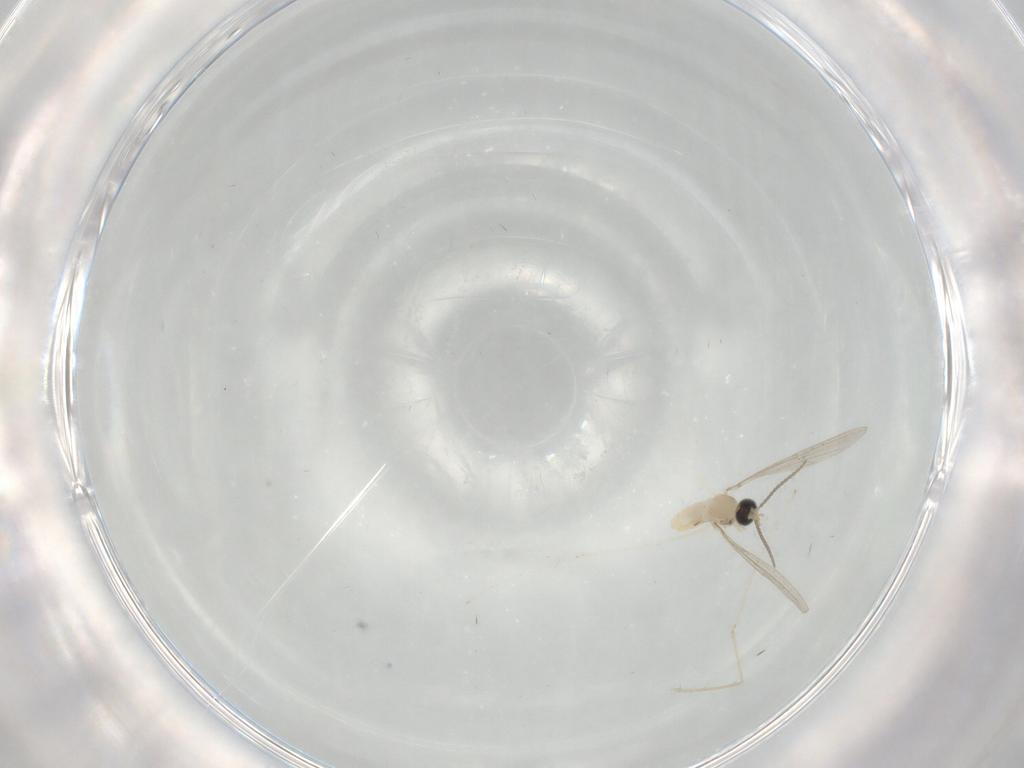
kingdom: Animalia
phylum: Arthropoda
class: Insecta
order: Diptera
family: Cecidomyiidae
